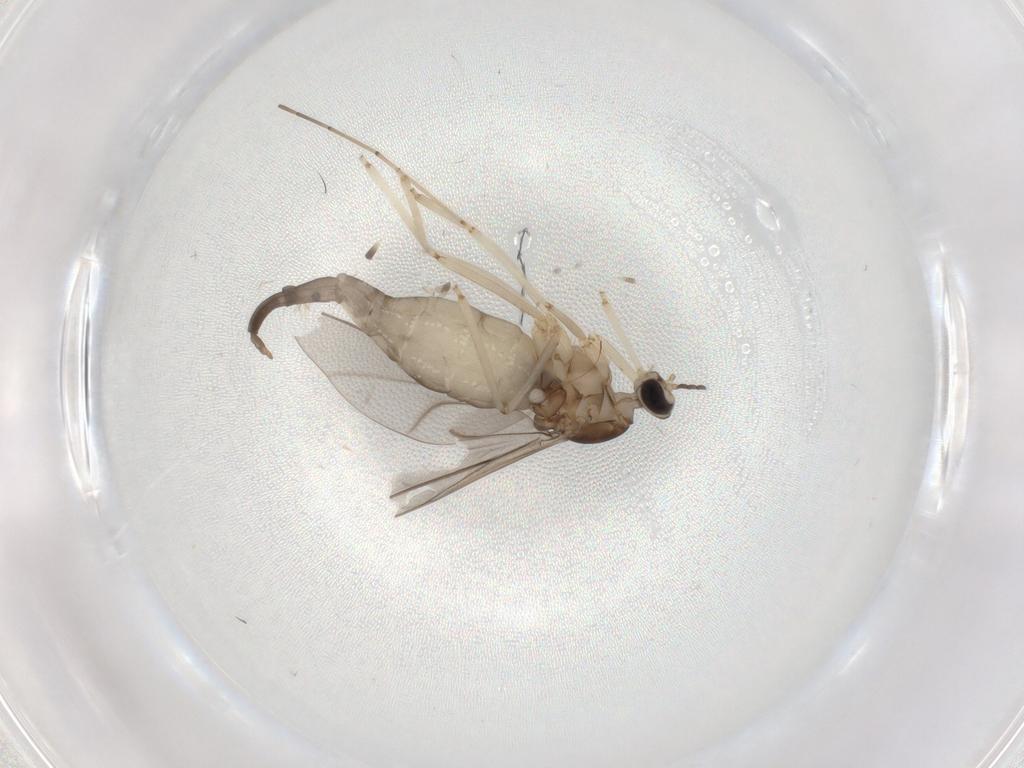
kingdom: Animalia
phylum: Arthropoda
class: Insecta
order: Diptera
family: Cecidomyiidae
